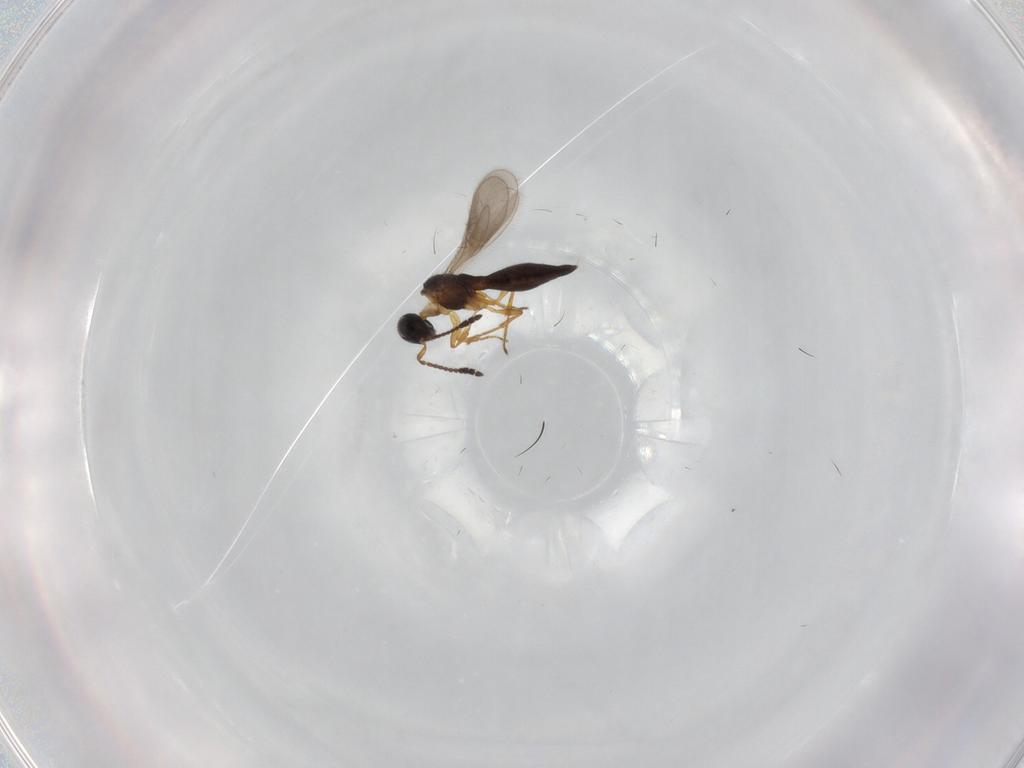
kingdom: Animalia
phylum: Arthropoda
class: Insecta
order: Hymenoptera
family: Scelionidae
